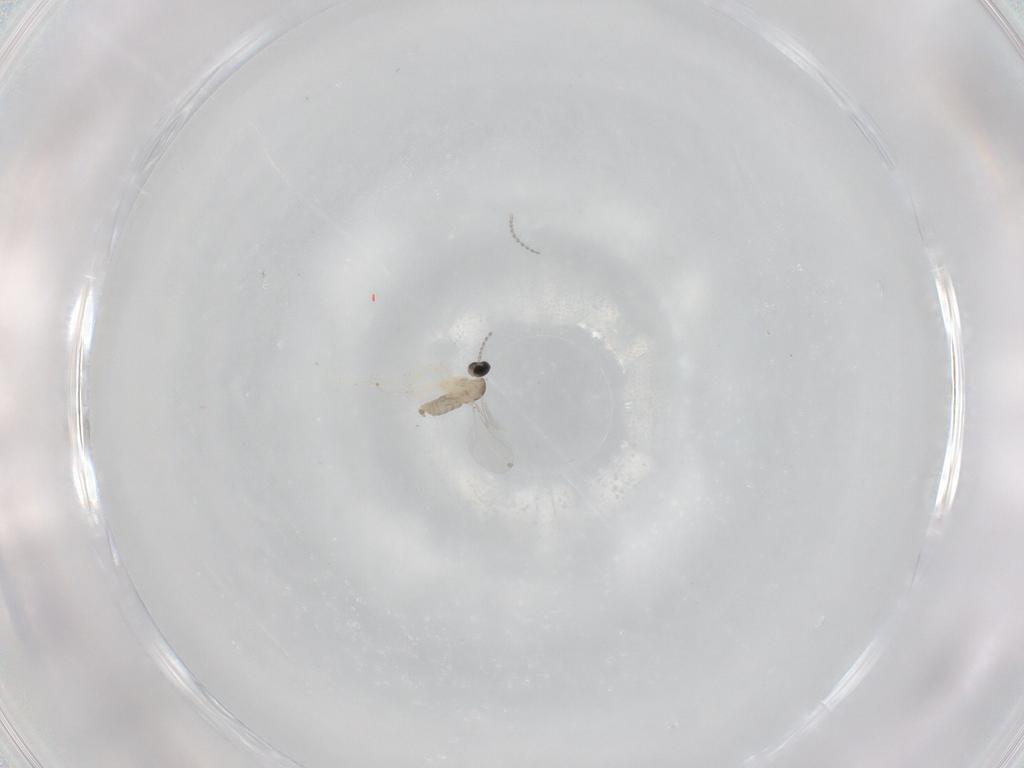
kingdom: Animalia
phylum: Arthropoda
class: Insecta
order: Diptera
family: Cecidomyiidae
